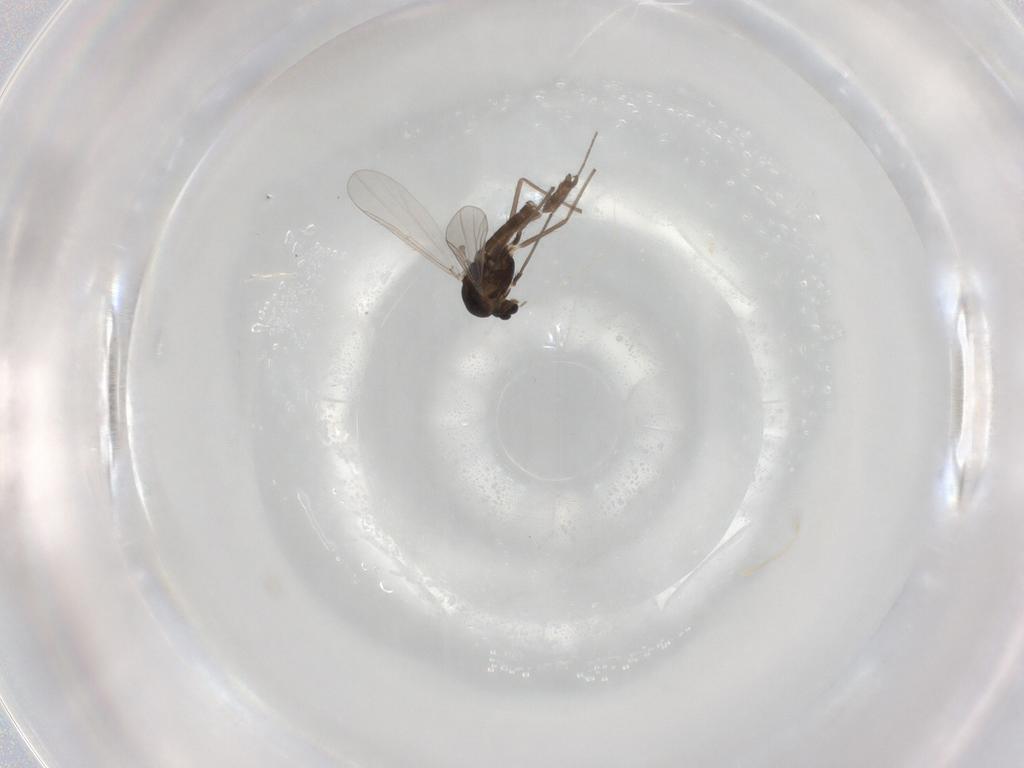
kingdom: Animalia
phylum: Arthropoda
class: Insecta
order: Diptera
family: Chironomidae
